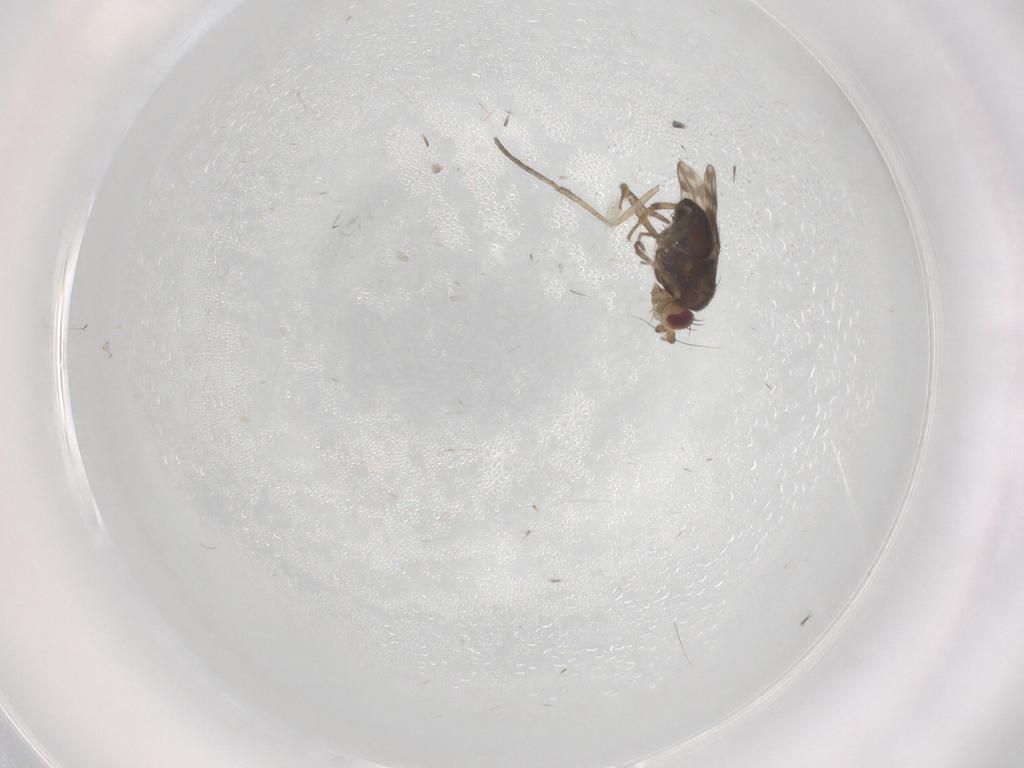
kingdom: Animalia
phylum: Arthropoda
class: Insecta
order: Diptera
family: Sphaeroceridae
